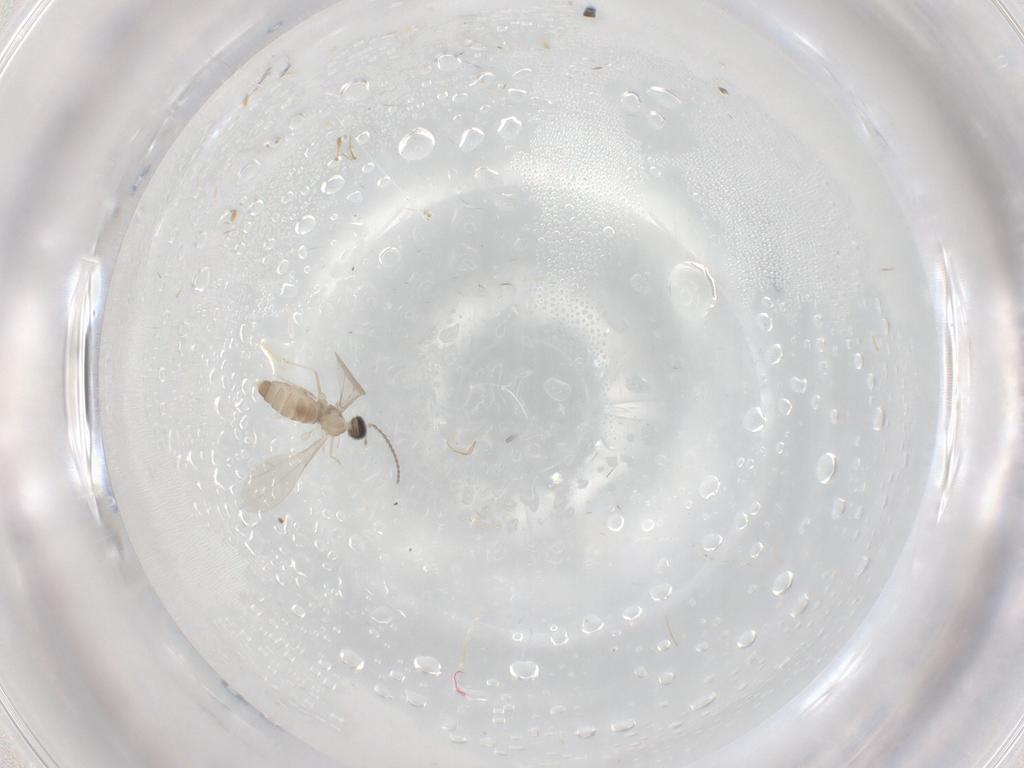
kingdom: Animalia
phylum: Arthropoda
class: Insecta
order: Diptera
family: Cecidomyiidae
